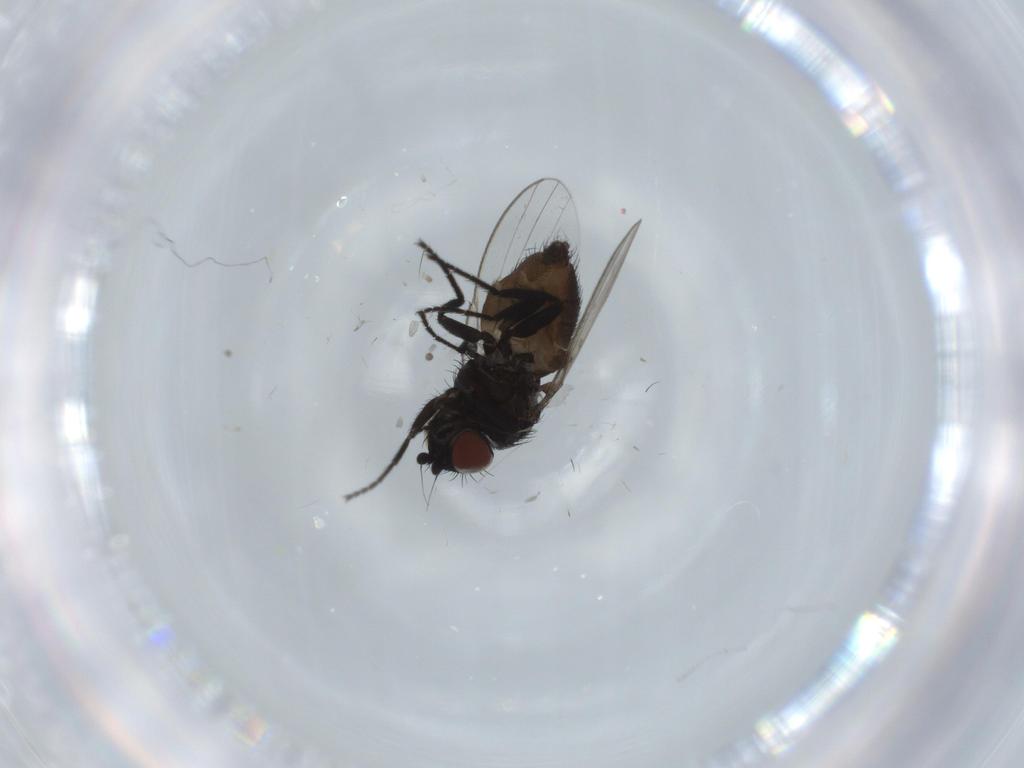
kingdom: Animalia
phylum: Arthropoda
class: Insecta
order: Diptera
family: Milichiidae
